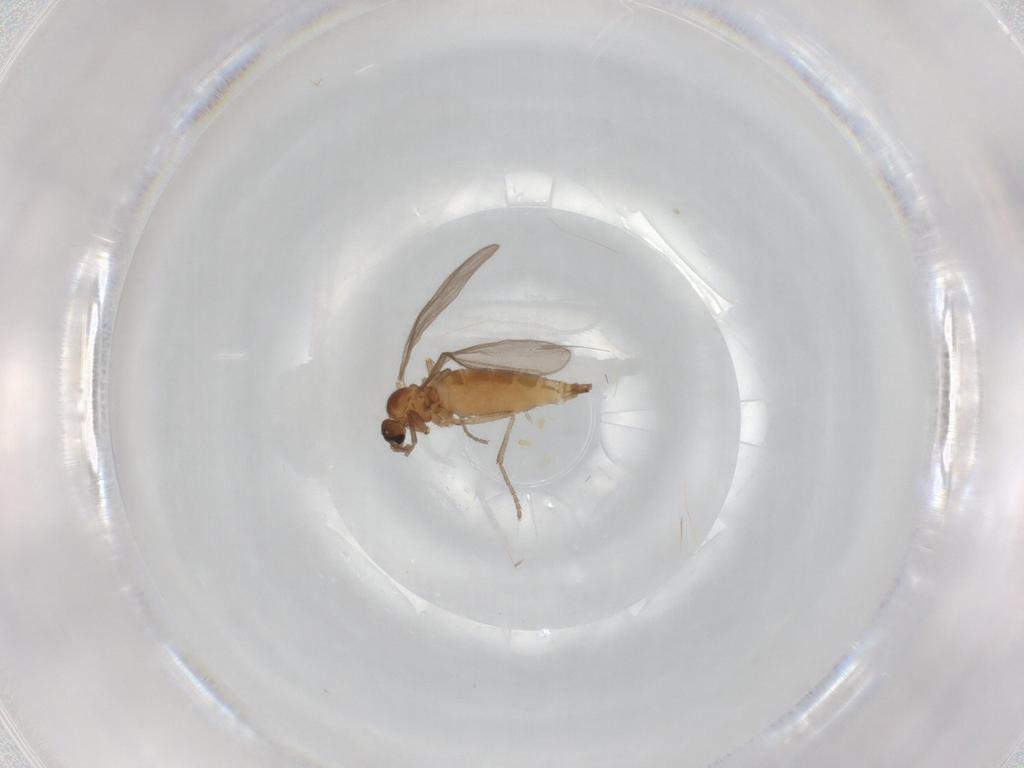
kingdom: Animalia
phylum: Arthropoda
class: Insecta
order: Diptera
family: Sciaridae
